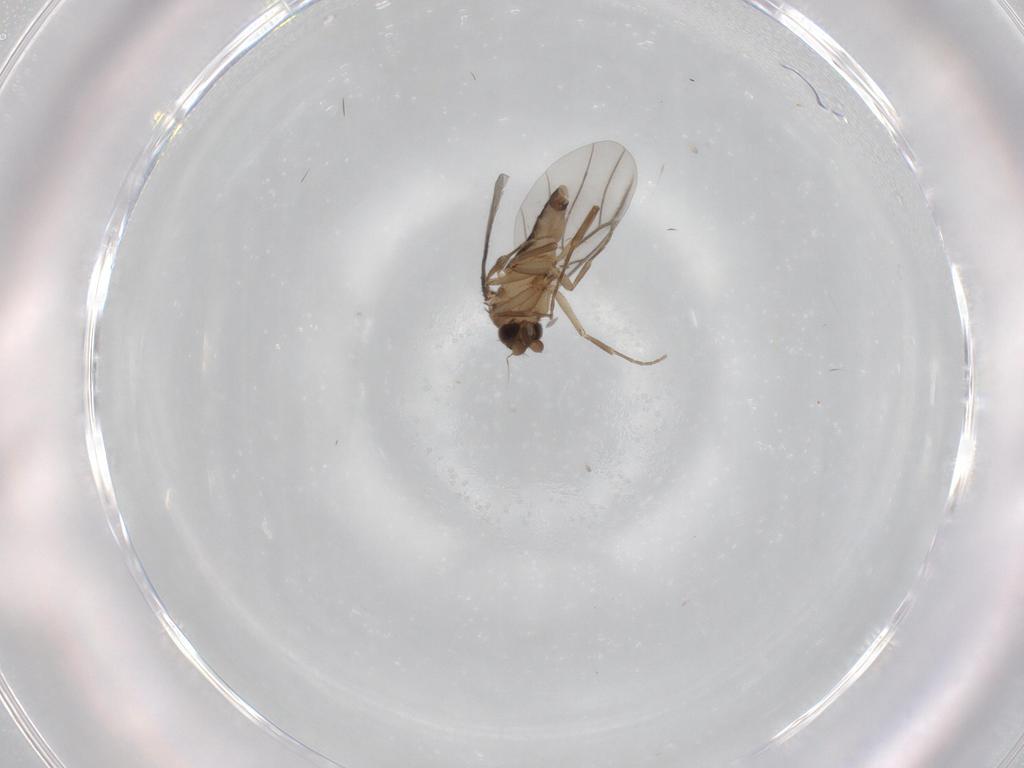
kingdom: Animalia
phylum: Arthropoda
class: Insecta
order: Diptera
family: Phoridae
